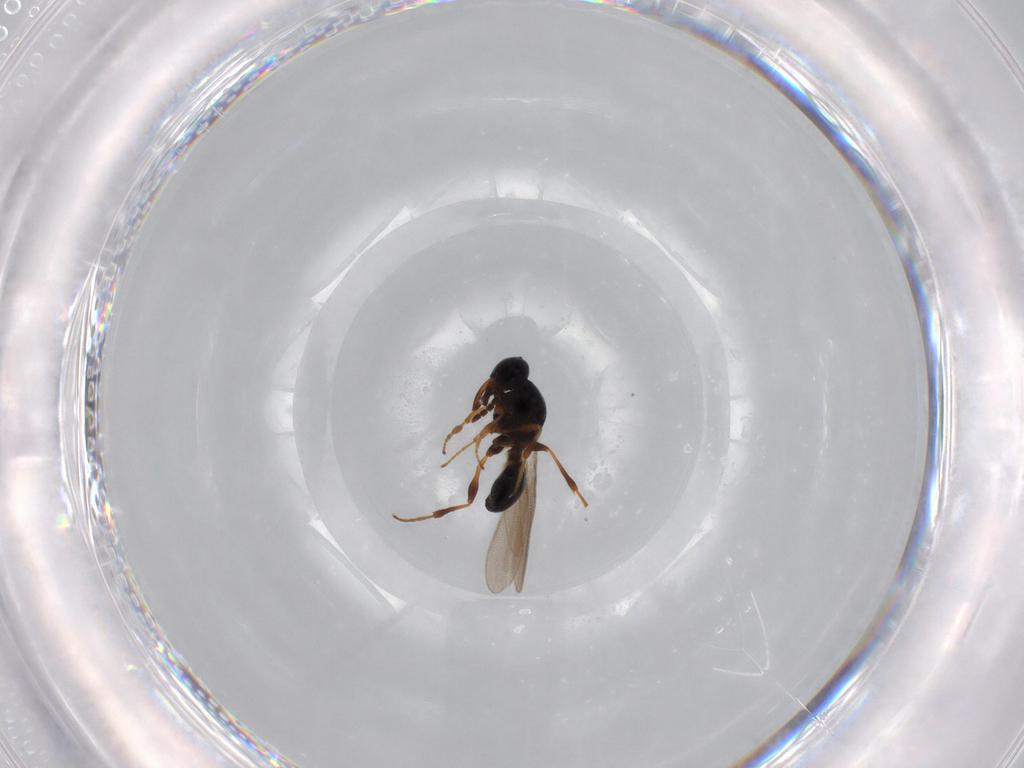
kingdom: Animalia
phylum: Arthropoda
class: Insecta
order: Hymenoptera
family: Platygastridae
